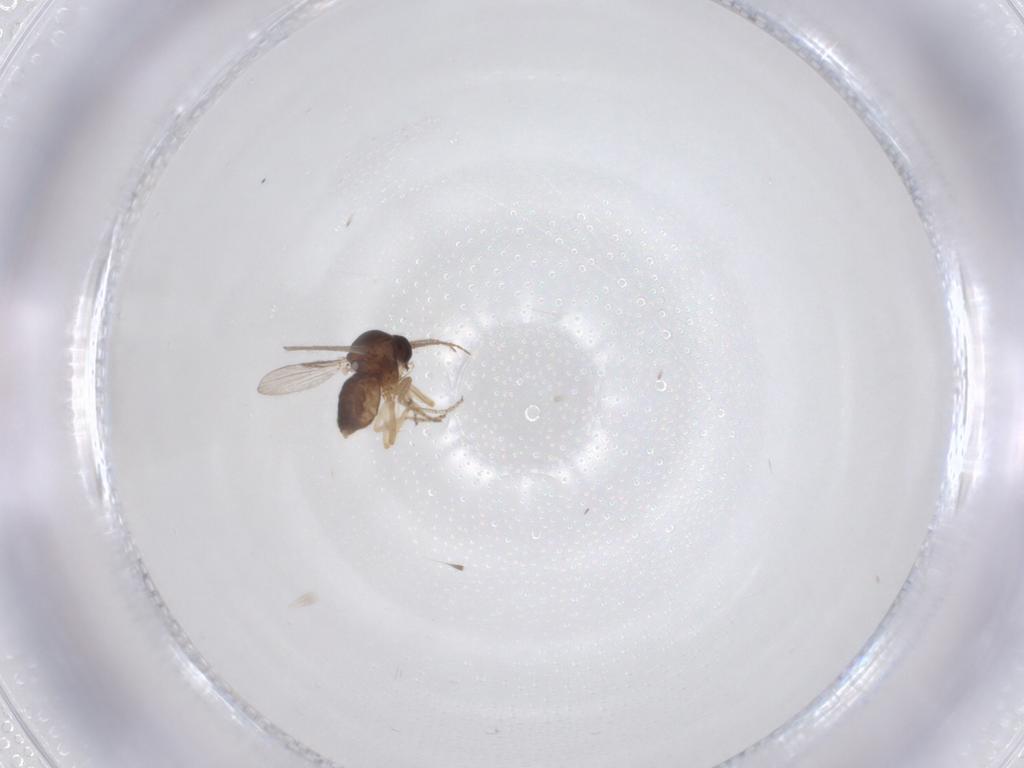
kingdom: Animalia
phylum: Arthropoda
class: Insecta
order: Diptera
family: Ceratopogonidae
